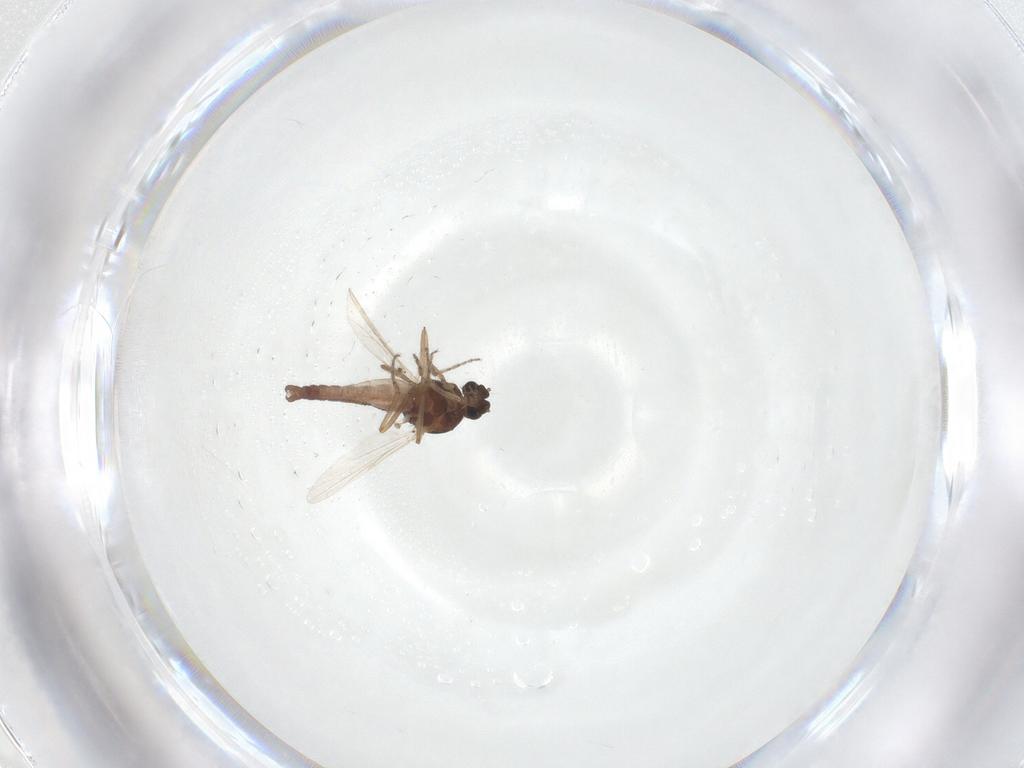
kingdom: Animalia
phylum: Arthropoda
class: Insecta
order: Diptera
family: Ceratopogonidae
